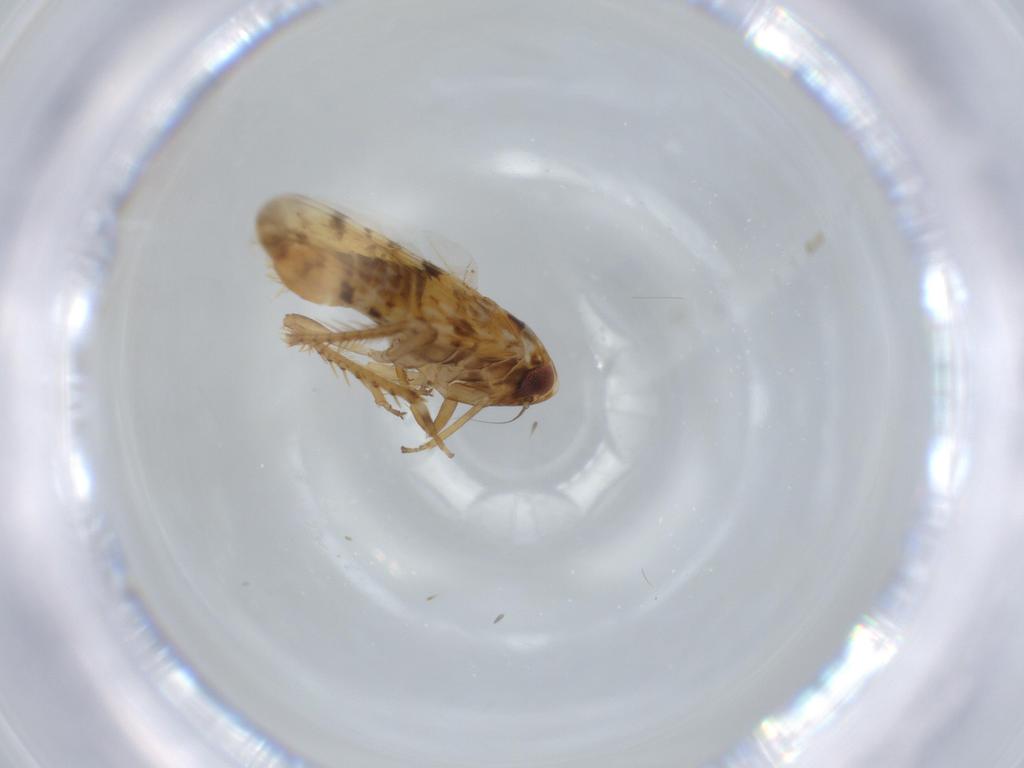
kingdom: Animalia
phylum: Arthropoda
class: Insecta
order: Hemiptera
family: Cicadellidae
